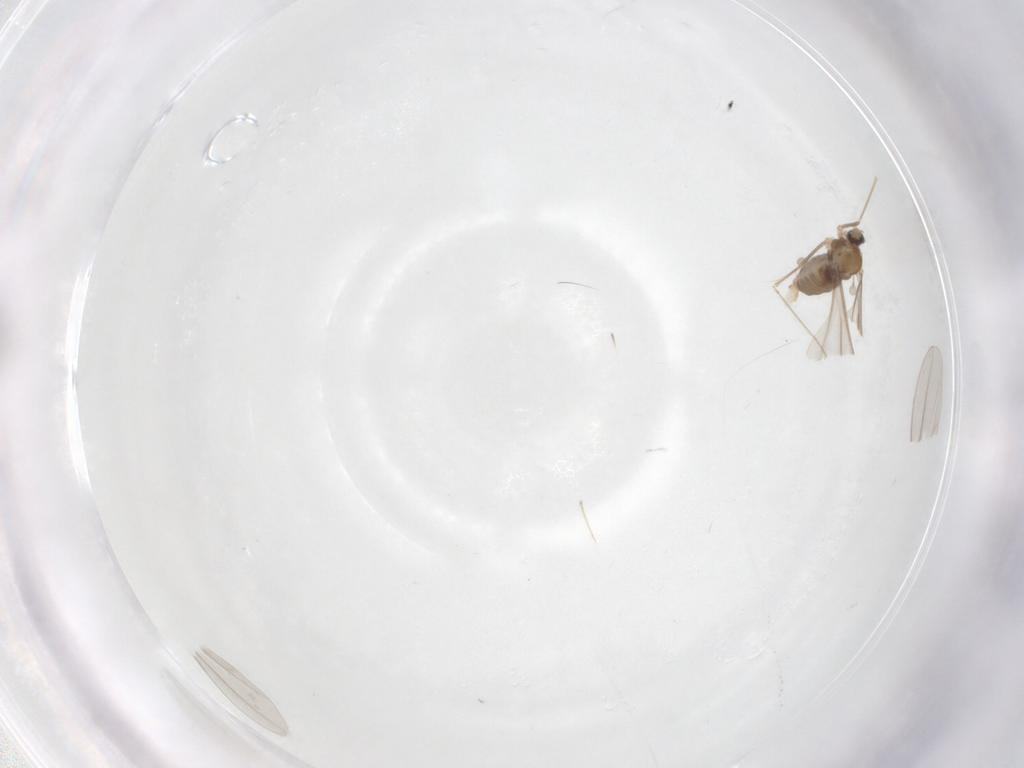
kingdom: Animalia
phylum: Arthropoda
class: Insecta
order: Diptera
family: Cecidomyiidae
